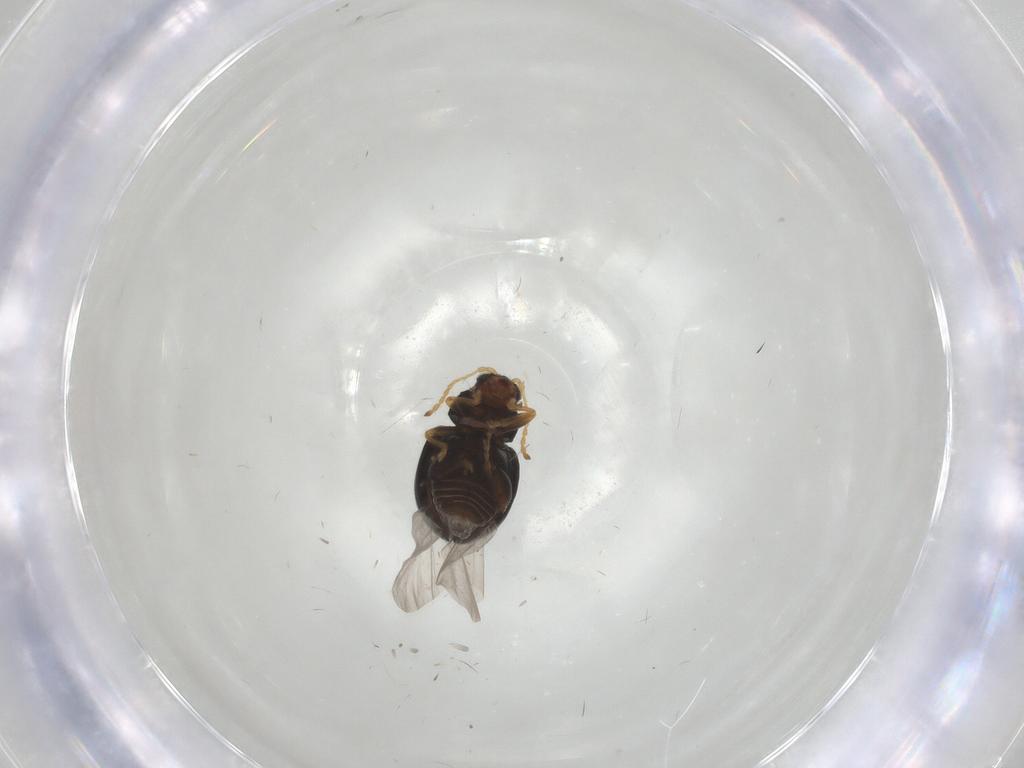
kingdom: Animalia
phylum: Arthropoda
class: Insecta
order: Coleoptera
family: Chrysomelidae
